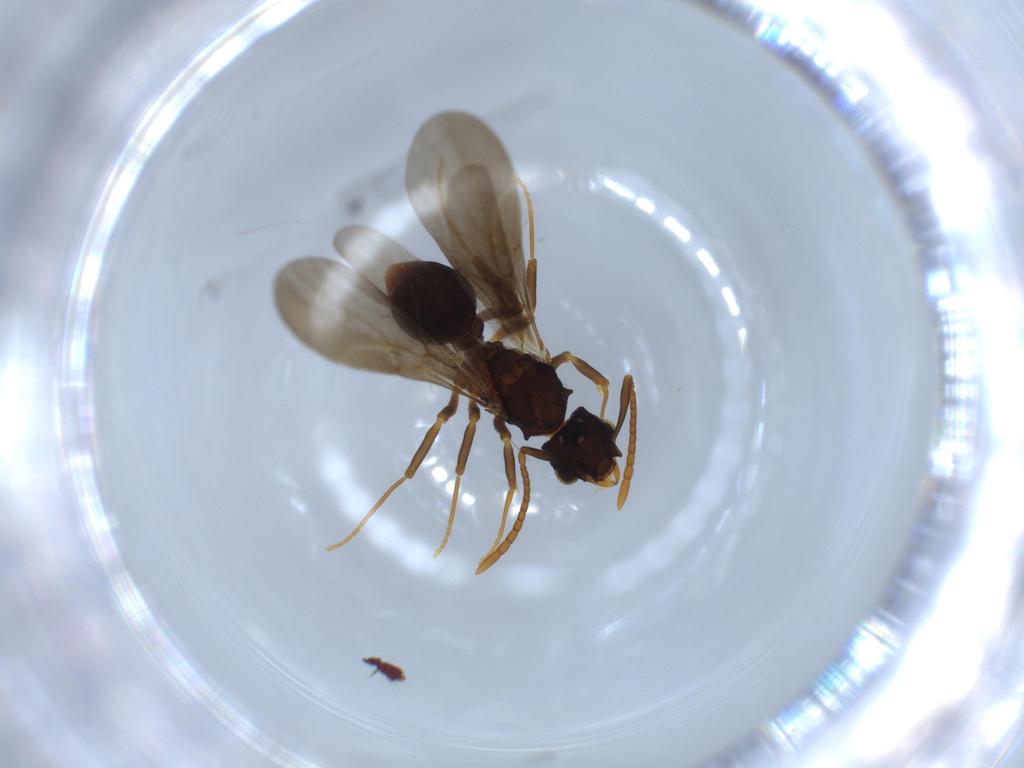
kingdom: Animalia
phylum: Arthropoda
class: Insecta
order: Hymenoptera
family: Formicidae
